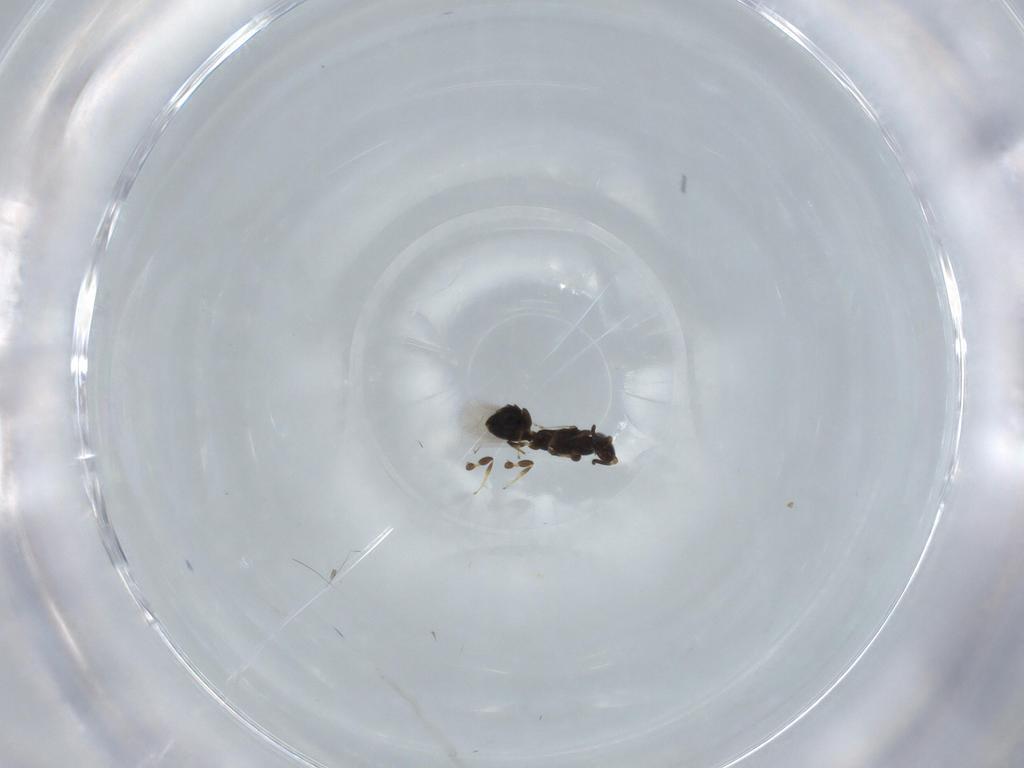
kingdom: Animalia
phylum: Arthropoda
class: Insecta
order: Hymenoptera
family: Bethylidae
